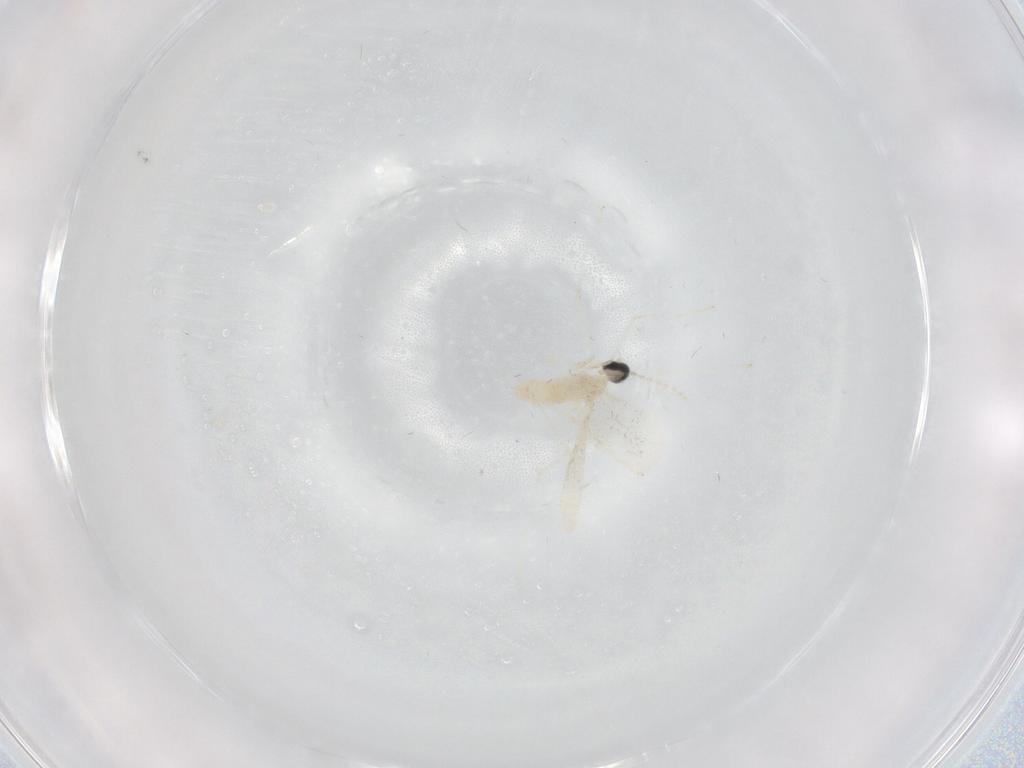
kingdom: Animalia
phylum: Arthropoda
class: Insecta
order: Diptera
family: Cecidomyiidae
